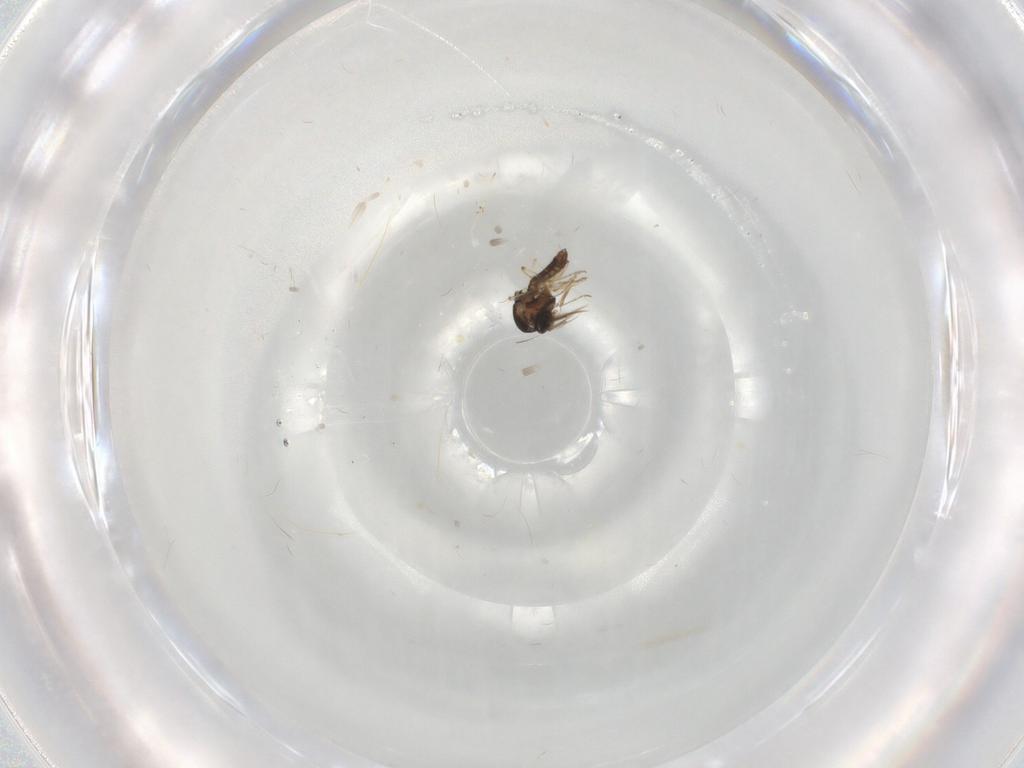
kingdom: Animalia
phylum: Arthropoda
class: Insecta
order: Diptera
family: Ceratopogonidae
